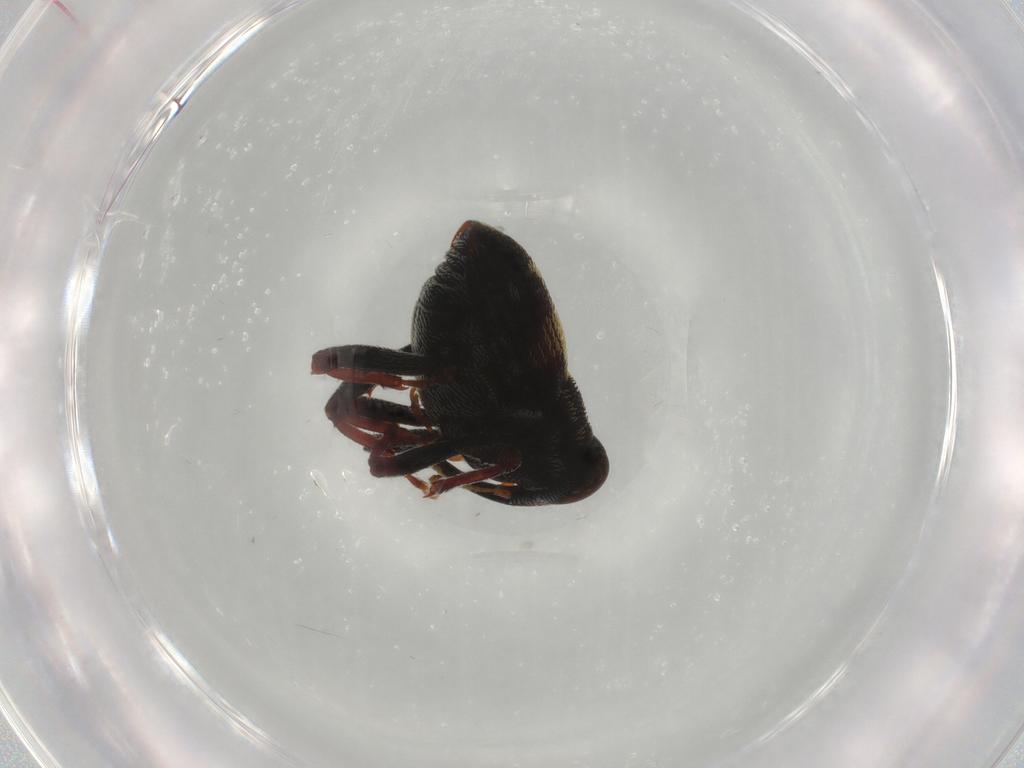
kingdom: Animalia
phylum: Arthropoda
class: Insecta
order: Coleoptera
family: Curculionidae
